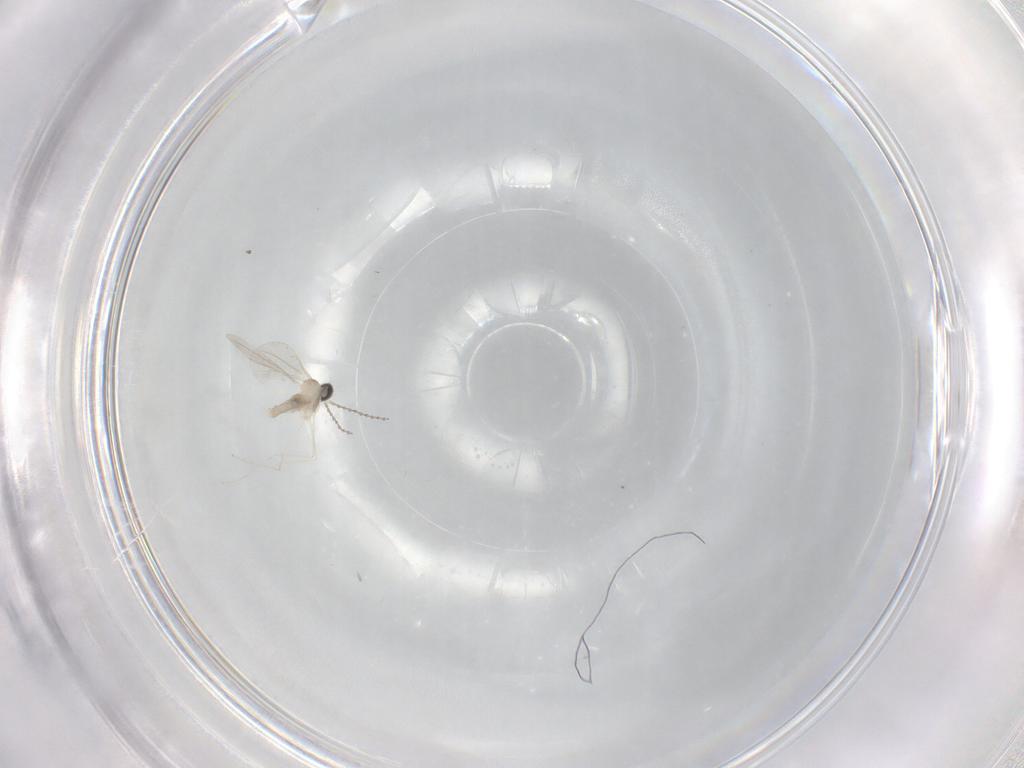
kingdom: Animalia
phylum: Arthropoda
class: Insecta
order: Diptera
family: Cecidomyiidae
